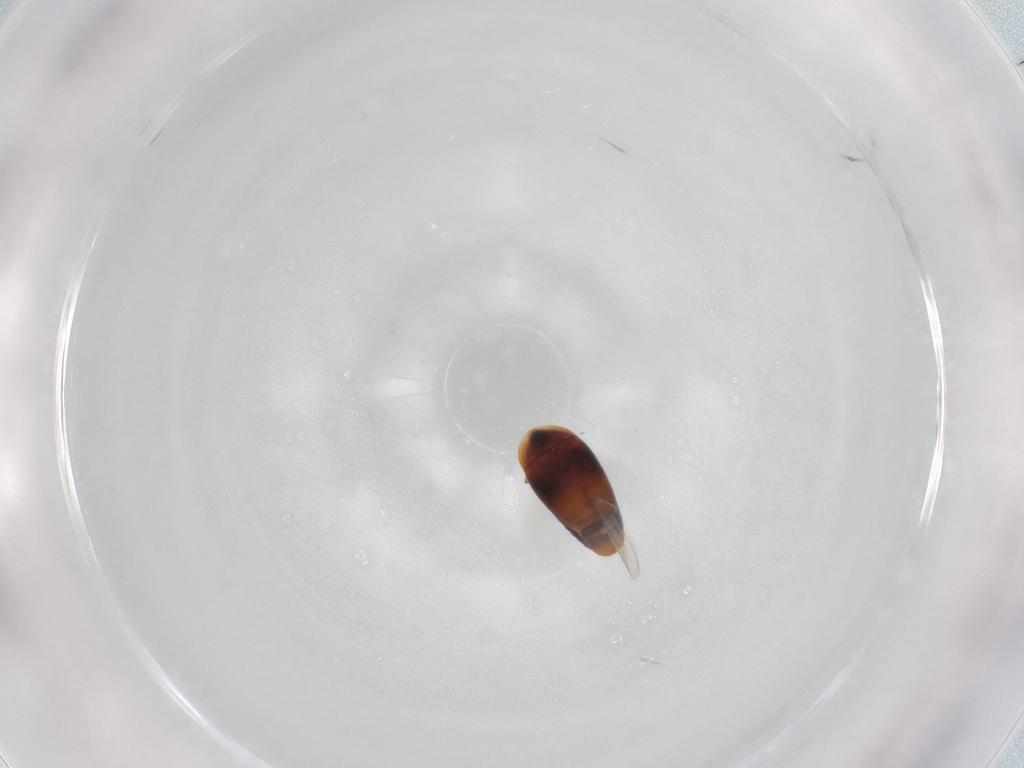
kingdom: Animalia
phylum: Arthropoda
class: Insecta
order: Coleoptera
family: Corylophidae
